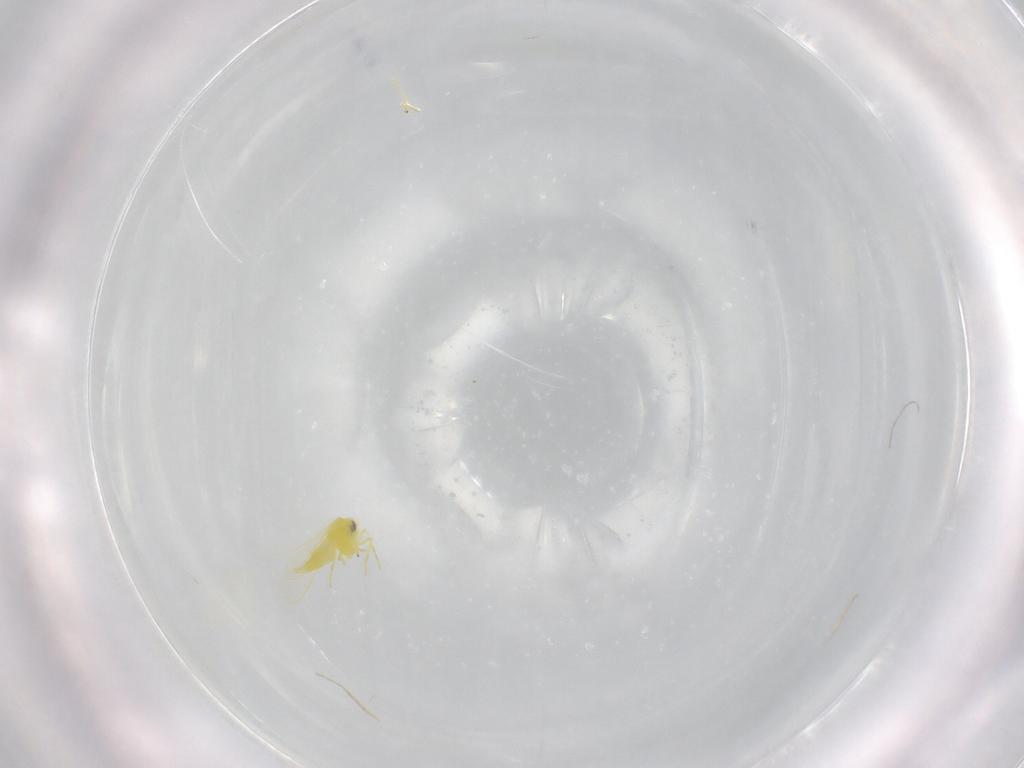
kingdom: Animalia
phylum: Arthropoda
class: Insecta
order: Hemiptera
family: Aleyrodidae
